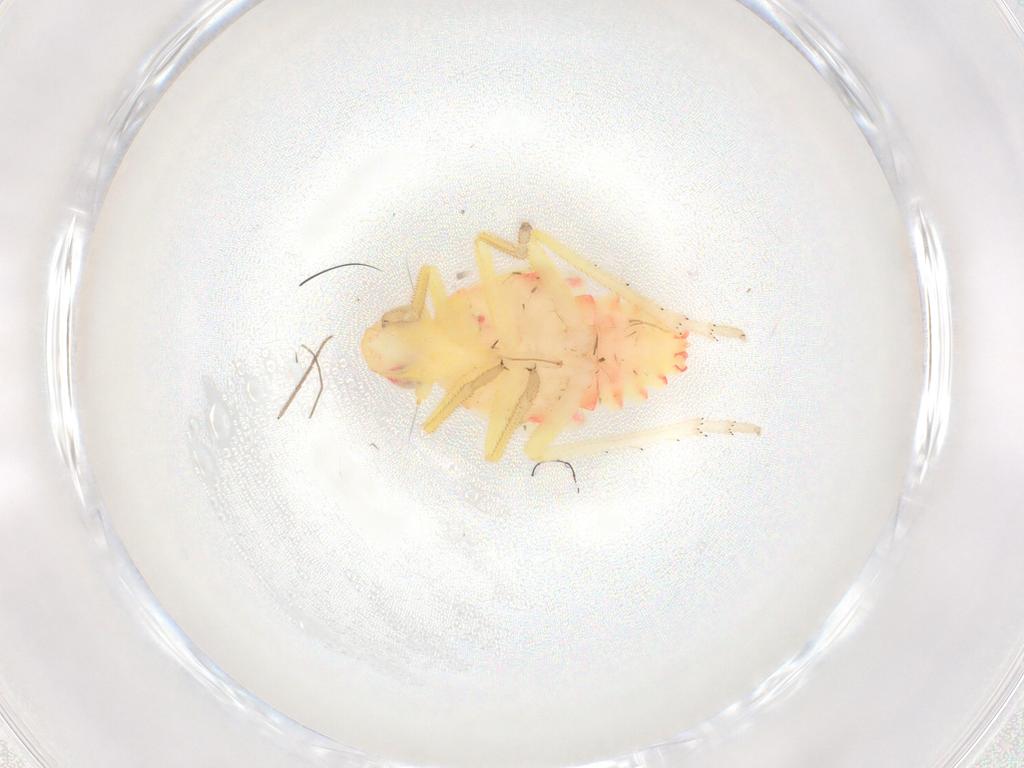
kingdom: Animalia
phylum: Arthropoda
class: Insecta
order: Hemiptera
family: Tropiduchidae
